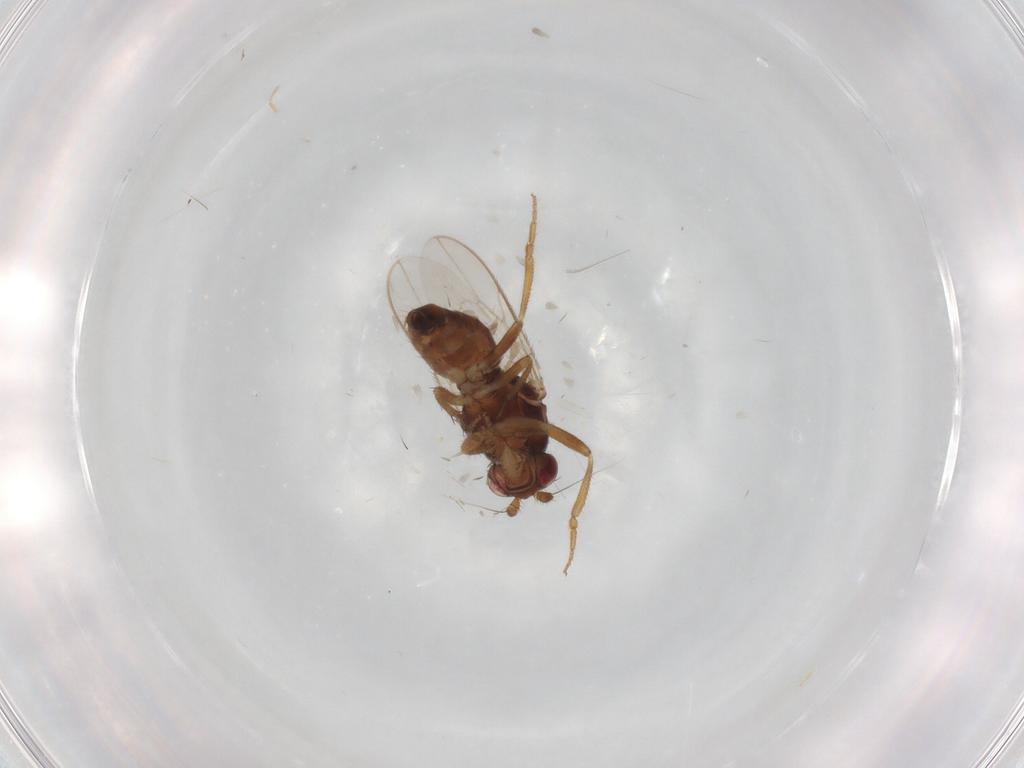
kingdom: Animalia
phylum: Arthropoda
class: Insecta
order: Diptera
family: Sphaeroceridae
